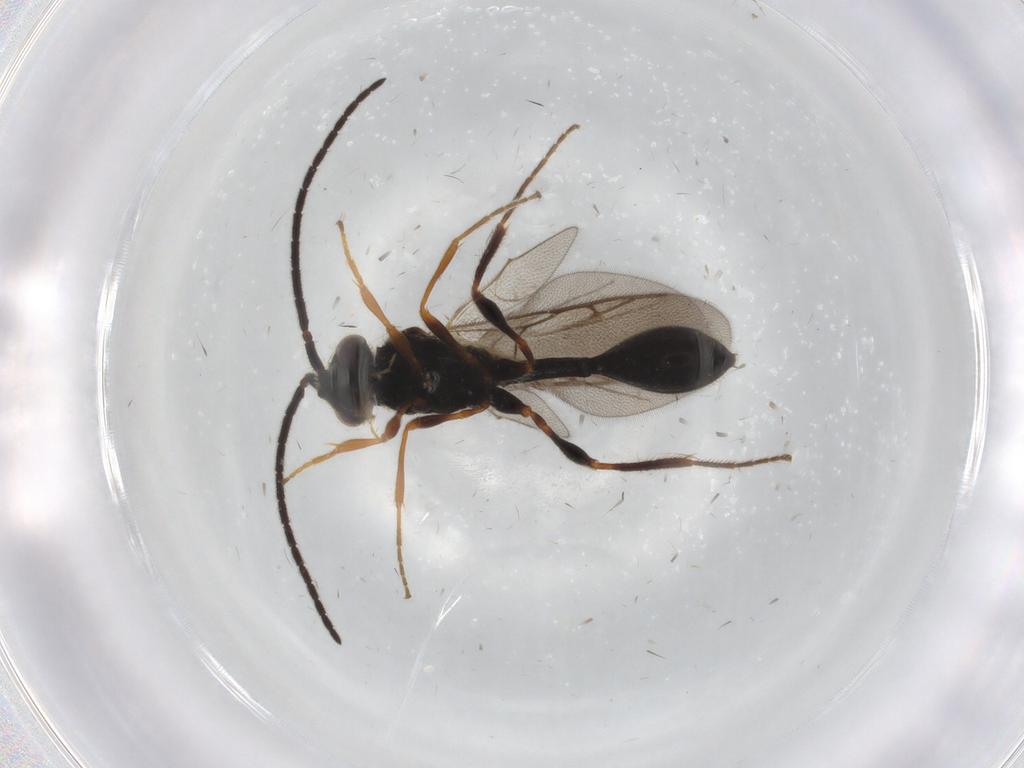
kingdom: Animalia
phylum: Arthropoda
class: Insecta
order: Hymenoptera
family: Diapriidae
